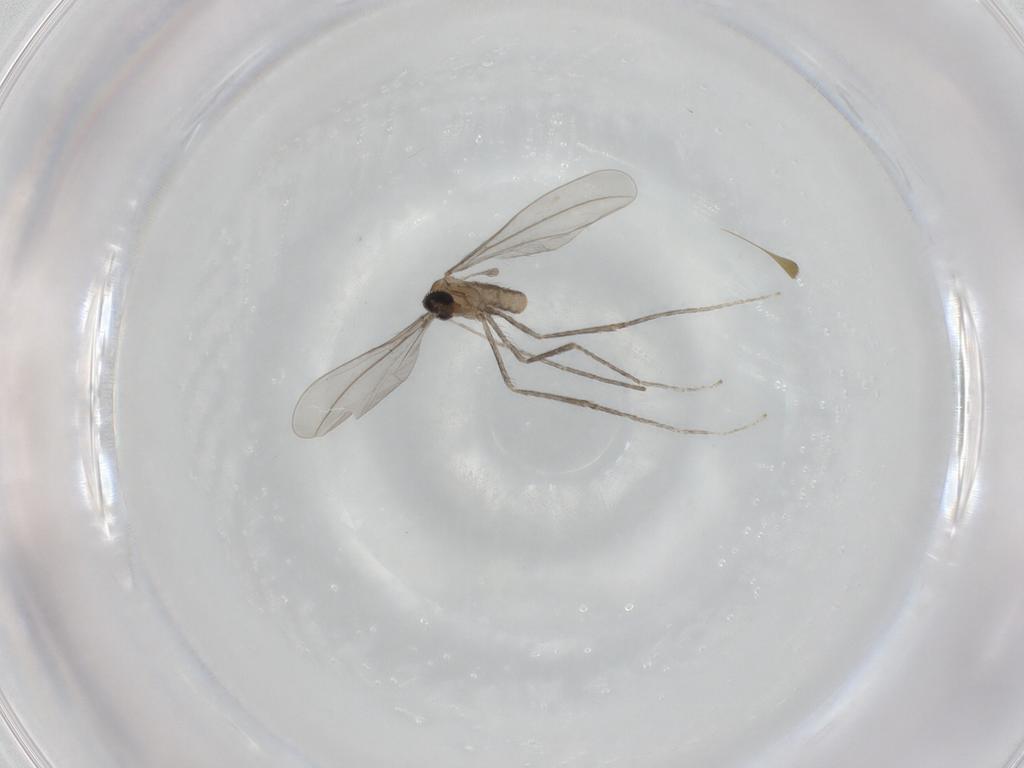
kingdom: Animalia
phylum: Arthropoda
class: Insecta
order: Diptera
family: Cecidomyiidae
